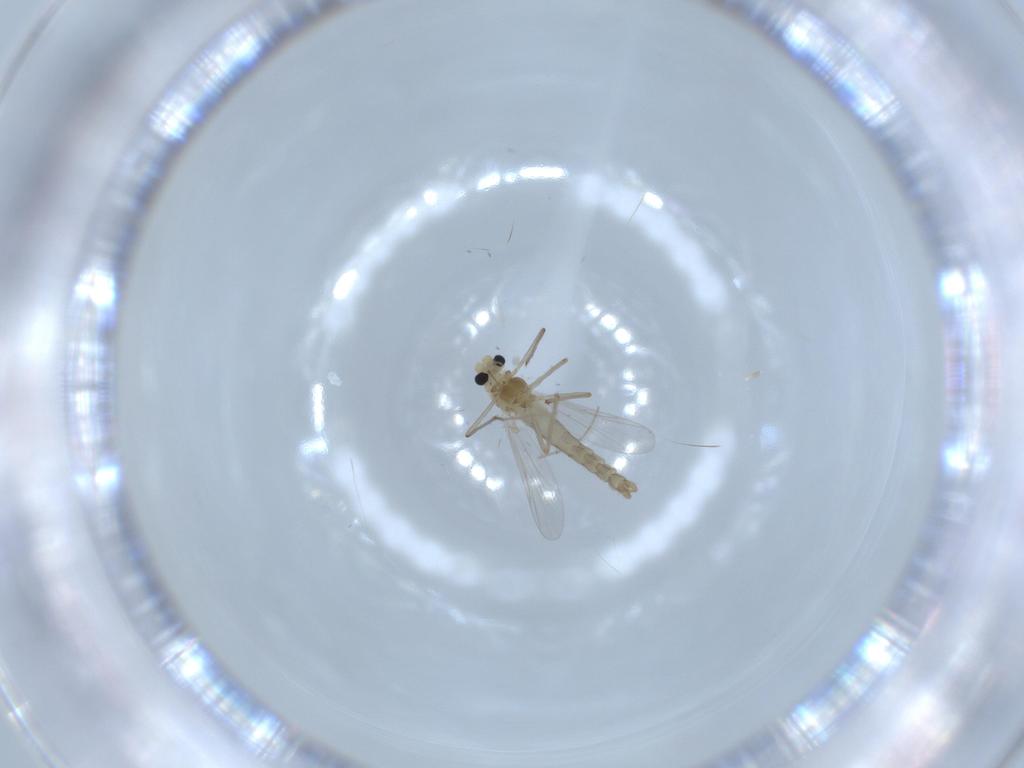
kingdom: Animalia
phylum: Arthropoda
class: Insecta
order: Diptera
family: Chironomidae
